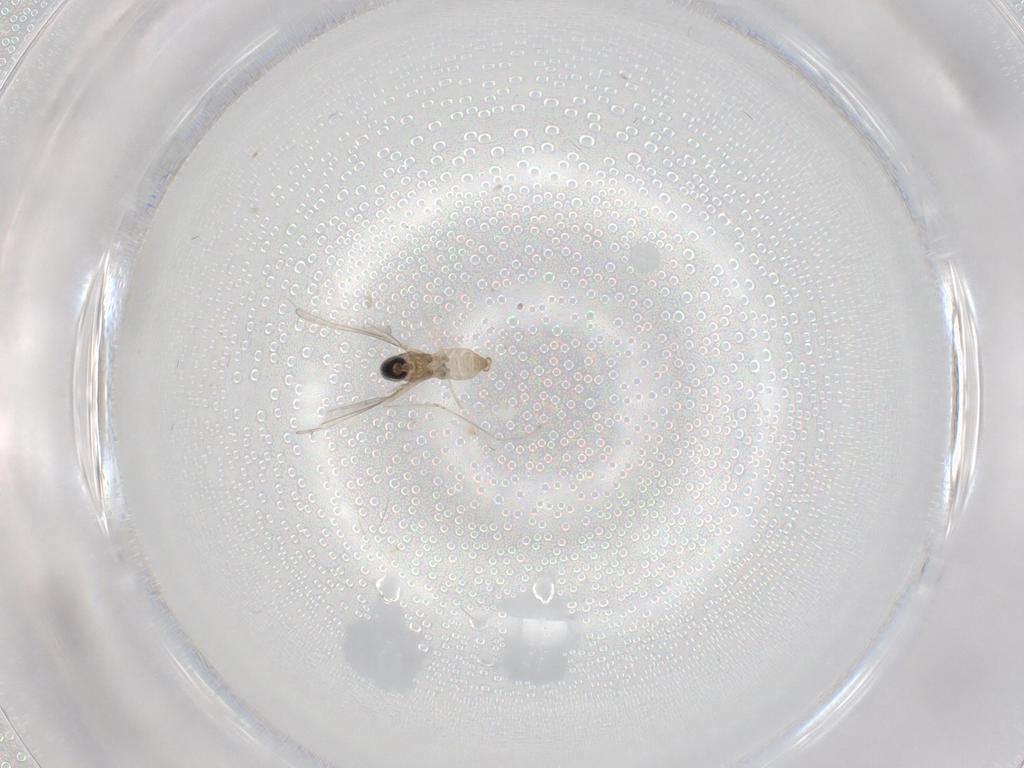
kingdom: Animalia
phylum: Arthropoda
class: Insecta
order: Diptera
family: Cecidomyiidae
